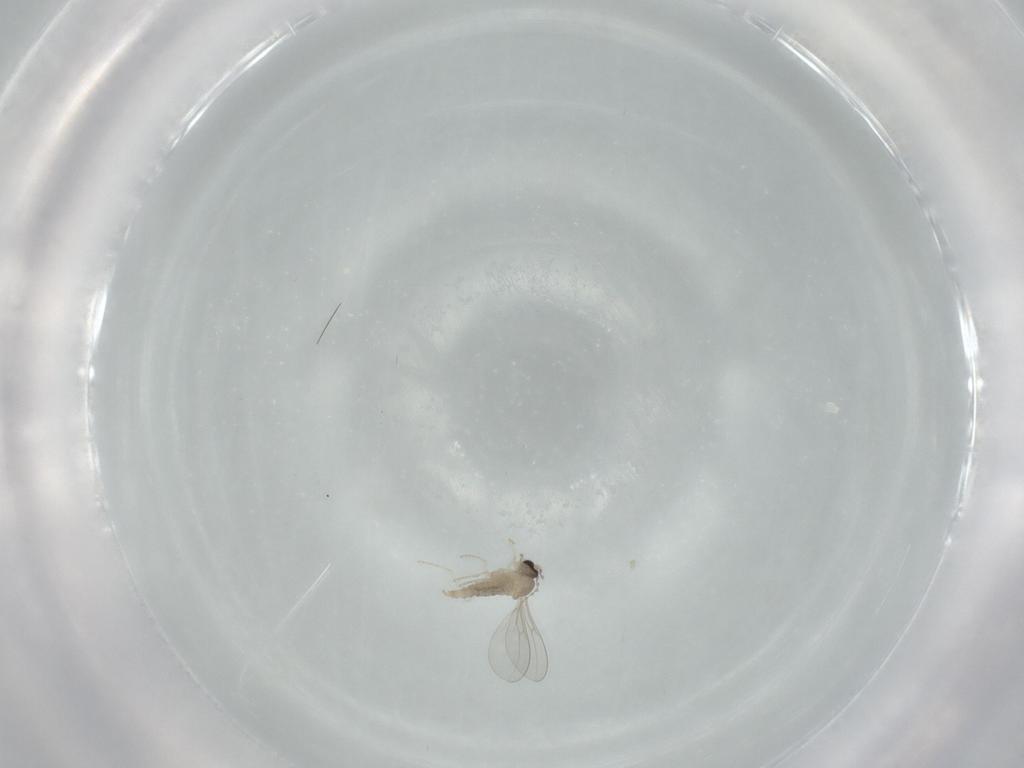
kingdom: Animalia
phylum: Arthropoda
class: Insecta
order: Diptera
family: Cecidomyiidae
